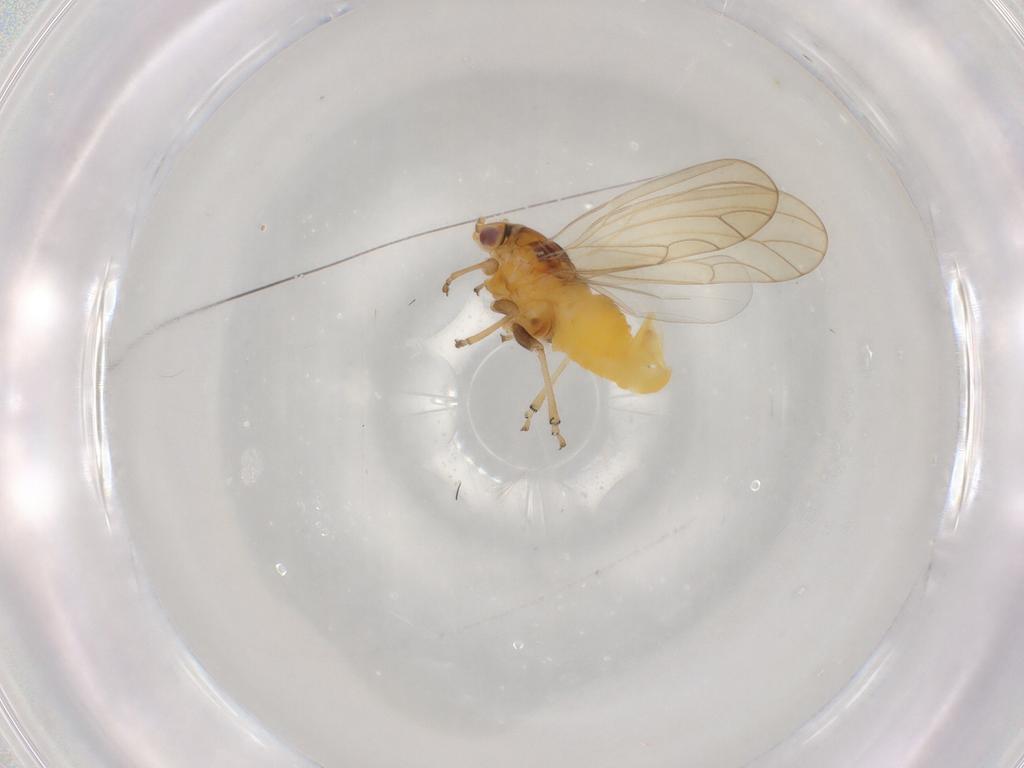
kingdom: Animalia
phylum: Arthropoda
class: Insecta
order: Hemiptera
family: Psylloidea_incertae_sedis
